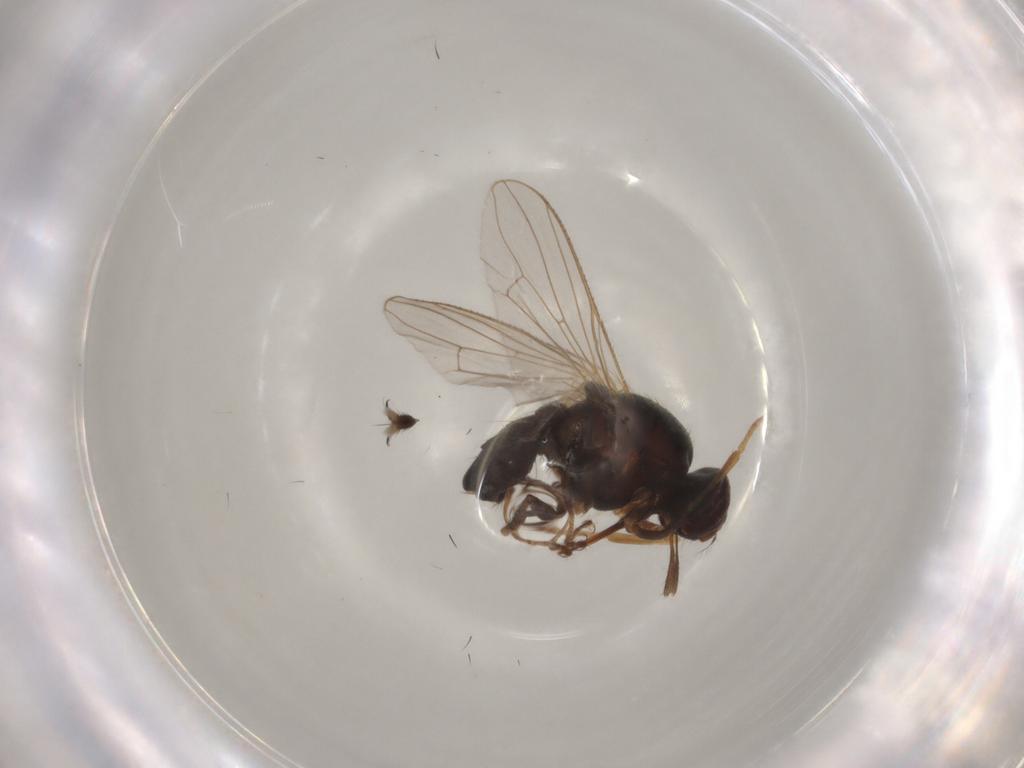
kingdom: Animalia
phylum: Arthropoda
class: Insecta
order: Diptera
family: Muscidae
